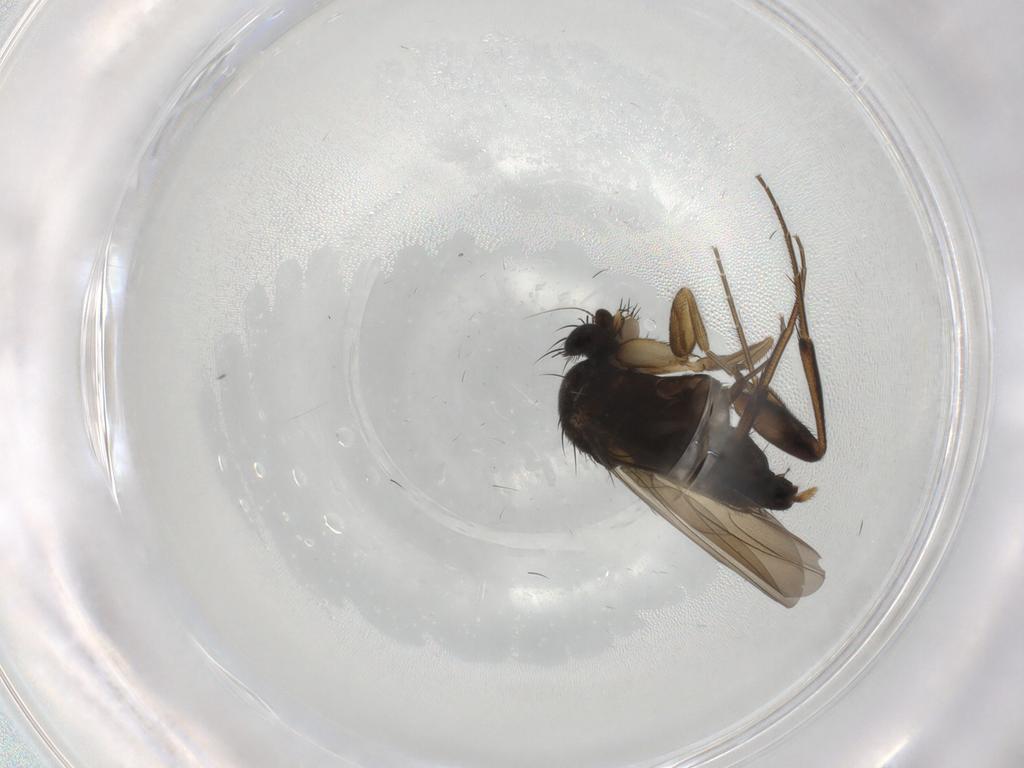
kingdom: Animalia
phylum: Arthropoda
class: Insecta
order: Diptera
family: Phoridae
